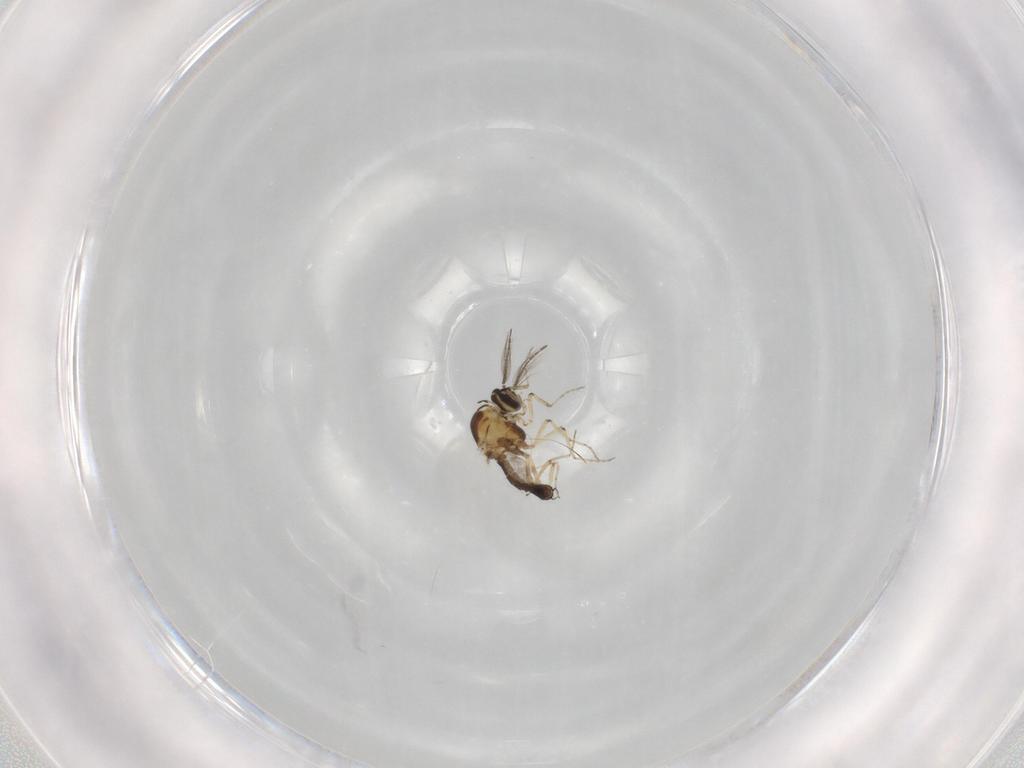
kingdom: Animalia
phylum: Arthropoda
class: Insecta
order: Diptera
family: Ceratopogonidae
